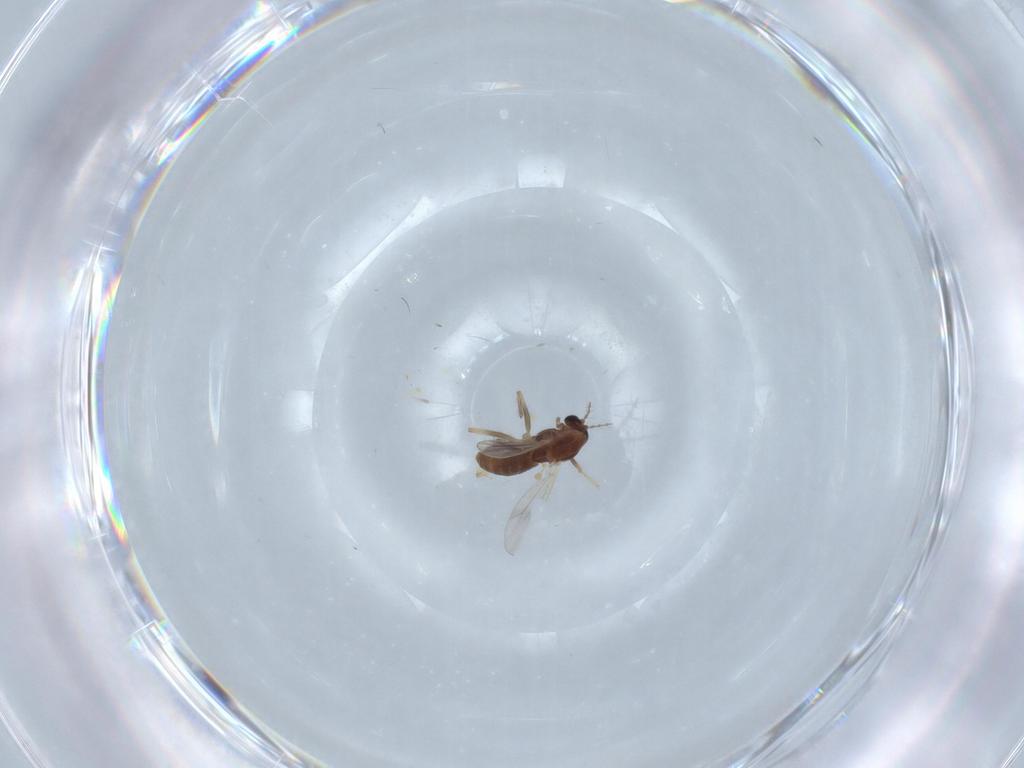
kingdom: Animalia
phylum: Arthropoda
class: Insecta
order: Diptera
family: Chironomidae
